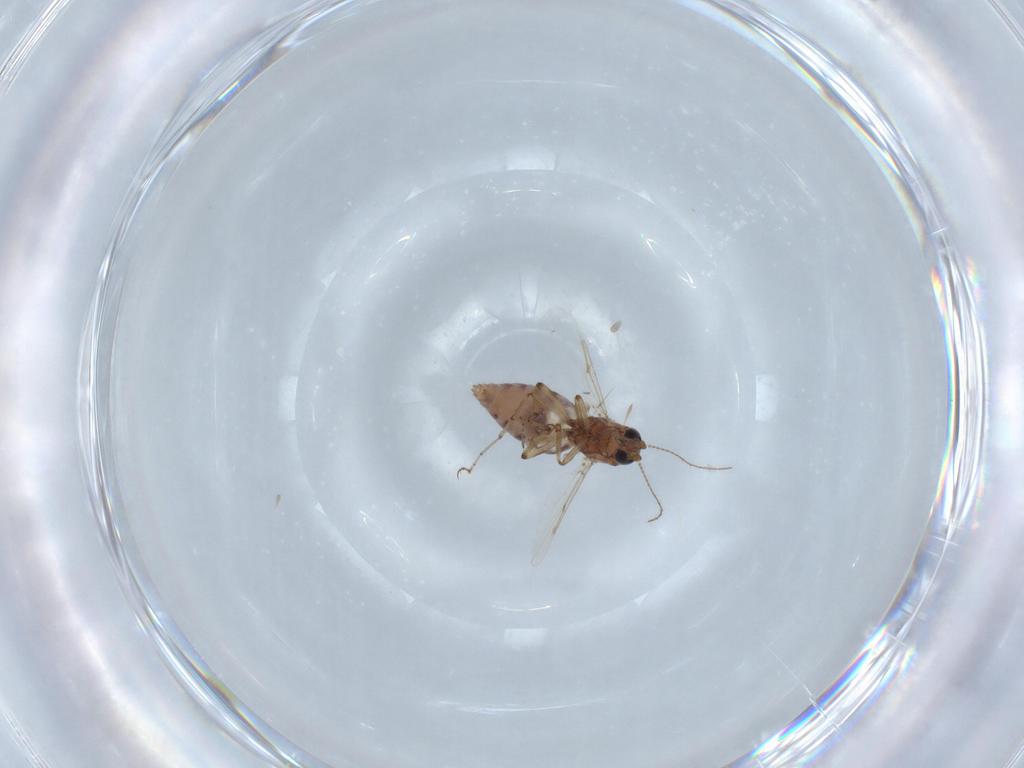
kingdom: Animalia
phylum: Arthropoda
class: Insecta
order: Diptera
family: Ceratopogonidae
